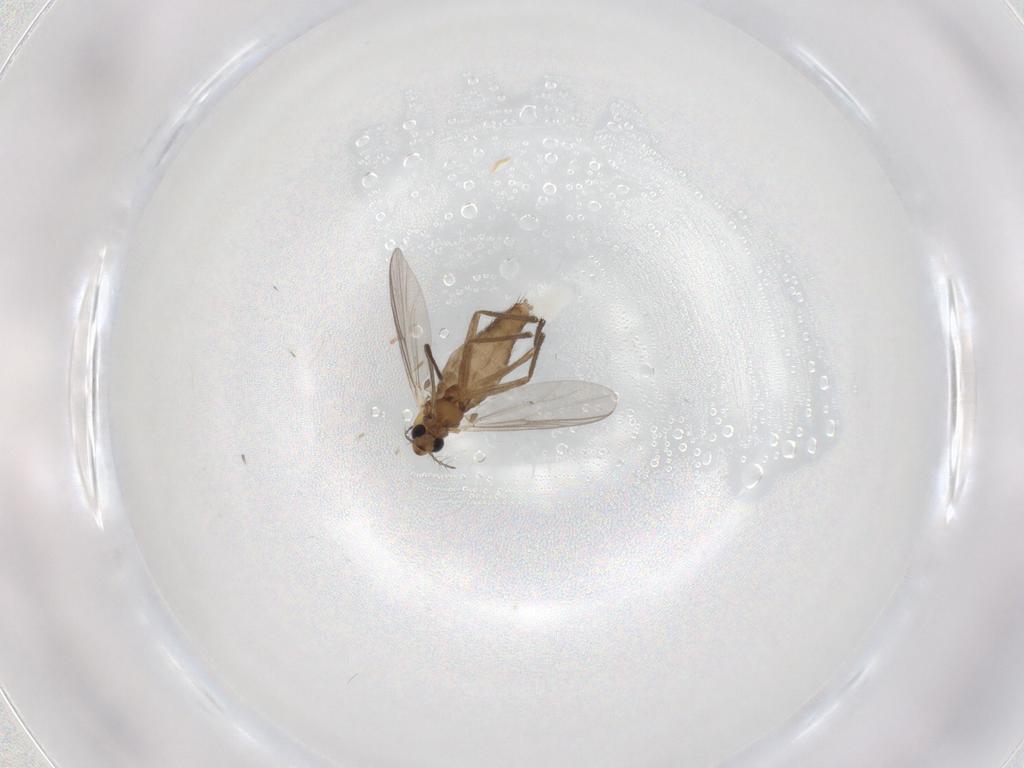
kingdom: Animalia
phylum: Arthropoda
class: Insecta
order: Diptera
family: Chironomidae
